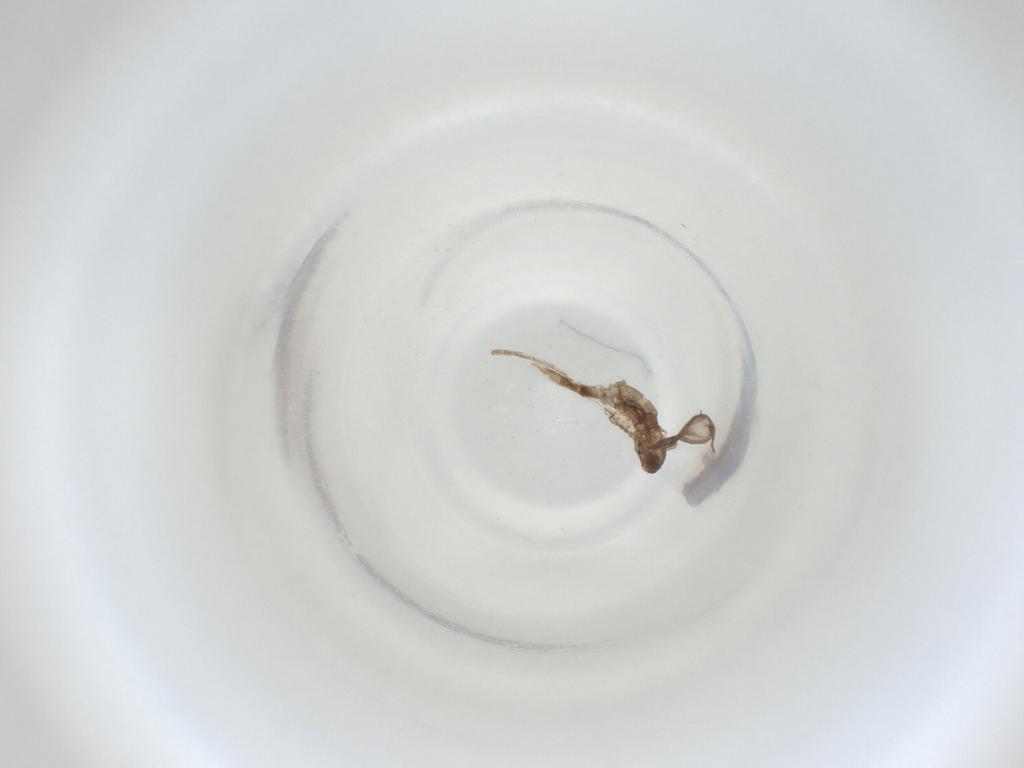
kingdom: Animalia
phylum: Arthropoda
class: Insecta
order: Diptera
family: Cecidomyiidae
